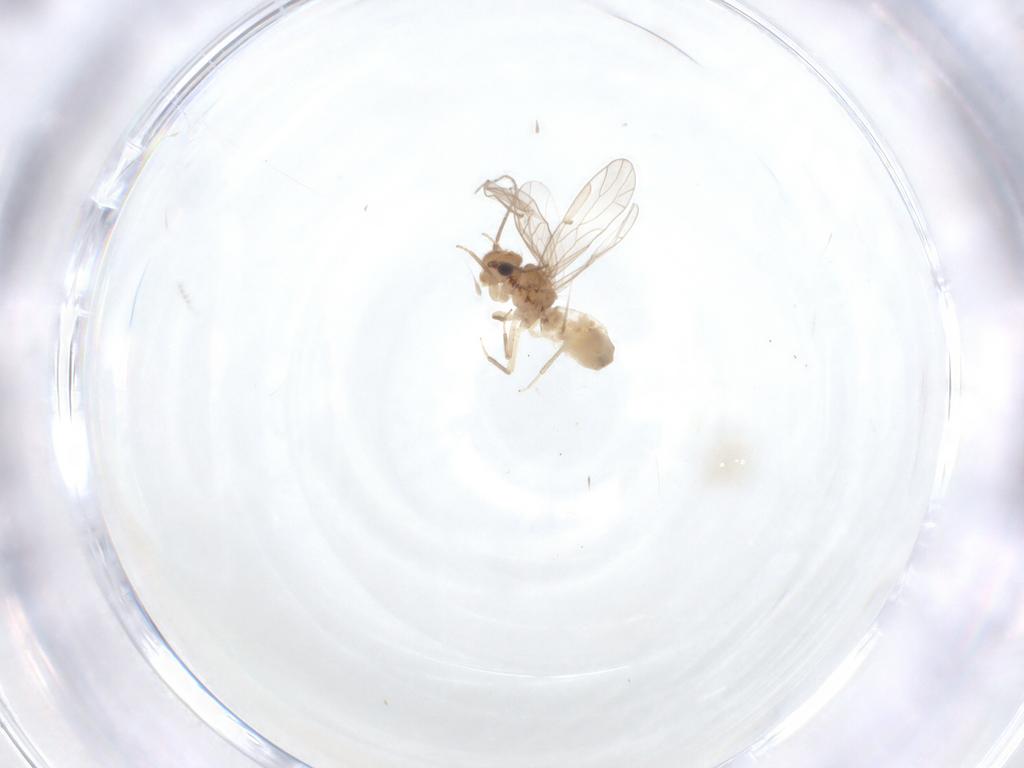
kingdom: Animalia
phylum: Arthropoda
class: Insecta
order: Psocodea
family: Ectopsocidae
